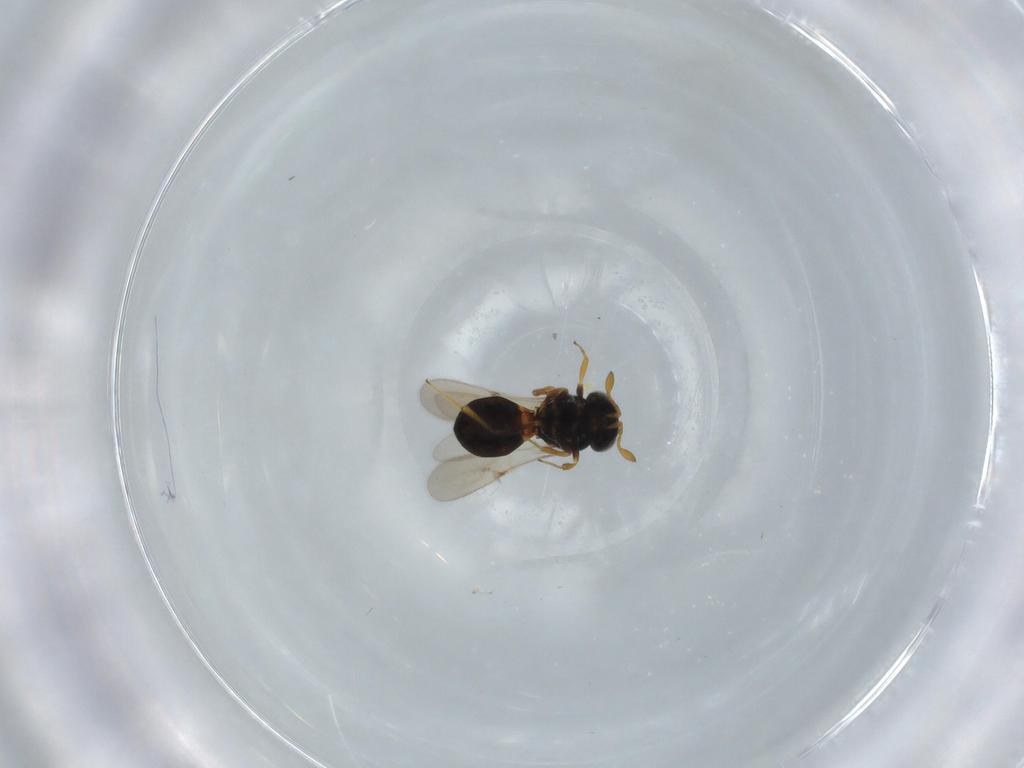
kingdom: Animalia
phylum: Arthropoda
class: Insecta
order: Hymenoptera
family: Scelionidae
